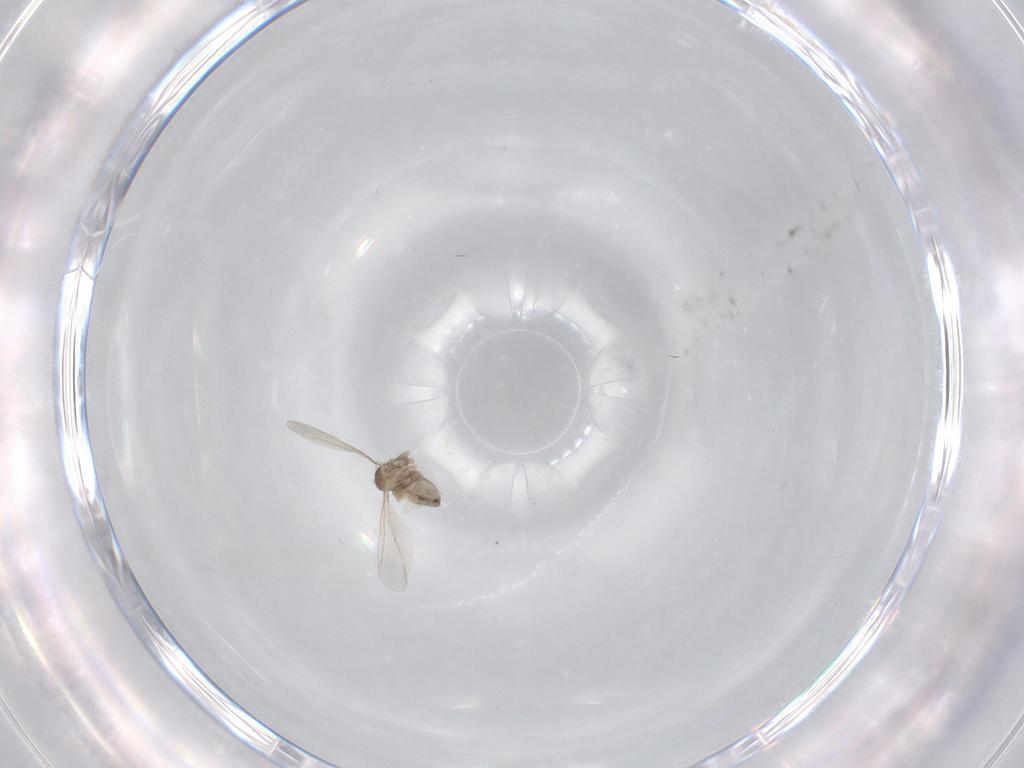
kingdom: Animalia
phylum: Arthropoda
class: Insecta
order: Diptera
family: Cecidomyiidae
